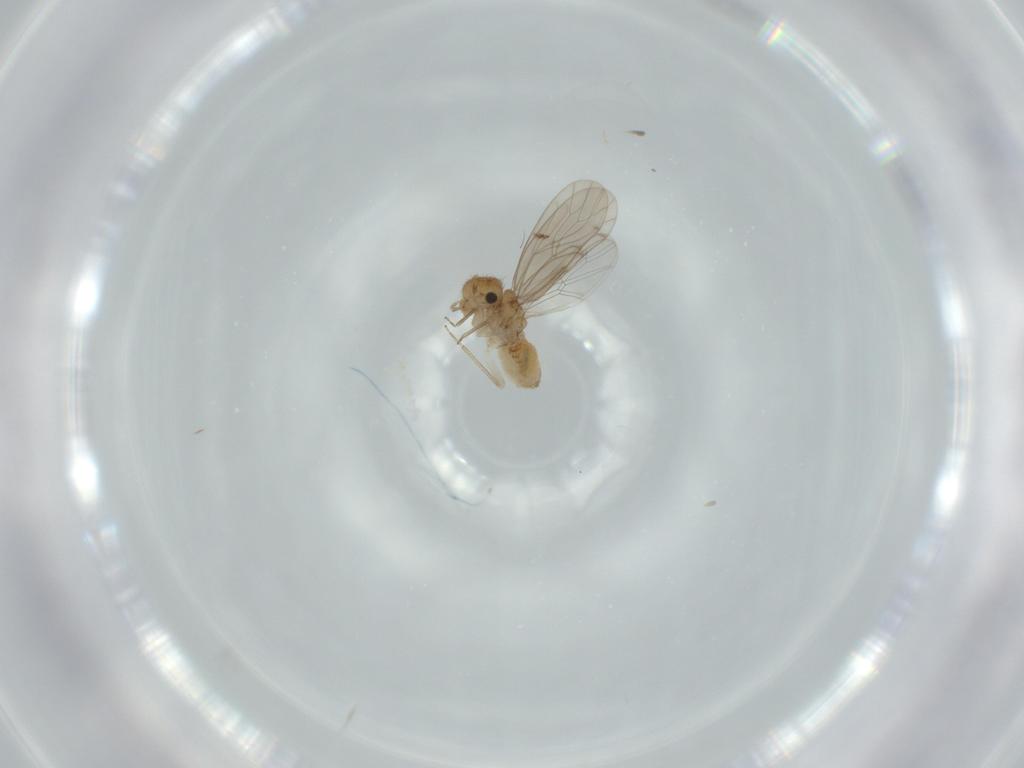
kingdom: Animalia
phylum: Arthropoda
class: Insecta
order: Psocodea
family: Ectopsocidae
